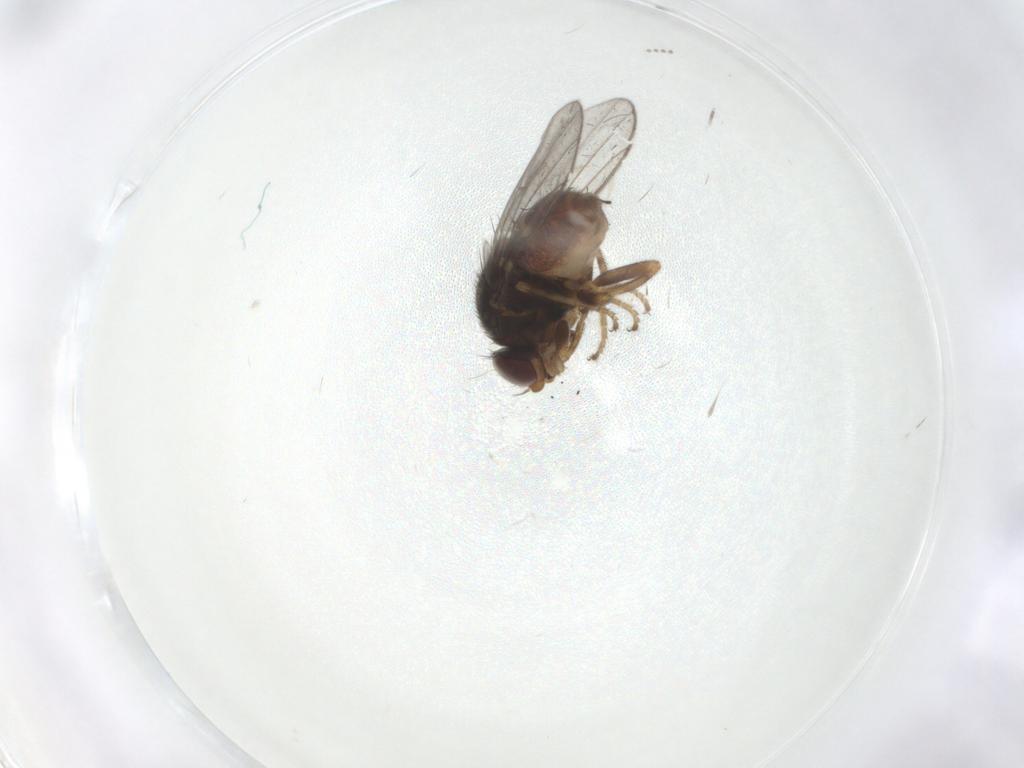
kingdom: Animalia
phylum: Arthropoda
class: Insecta
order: Diptera
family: Chloropidae
